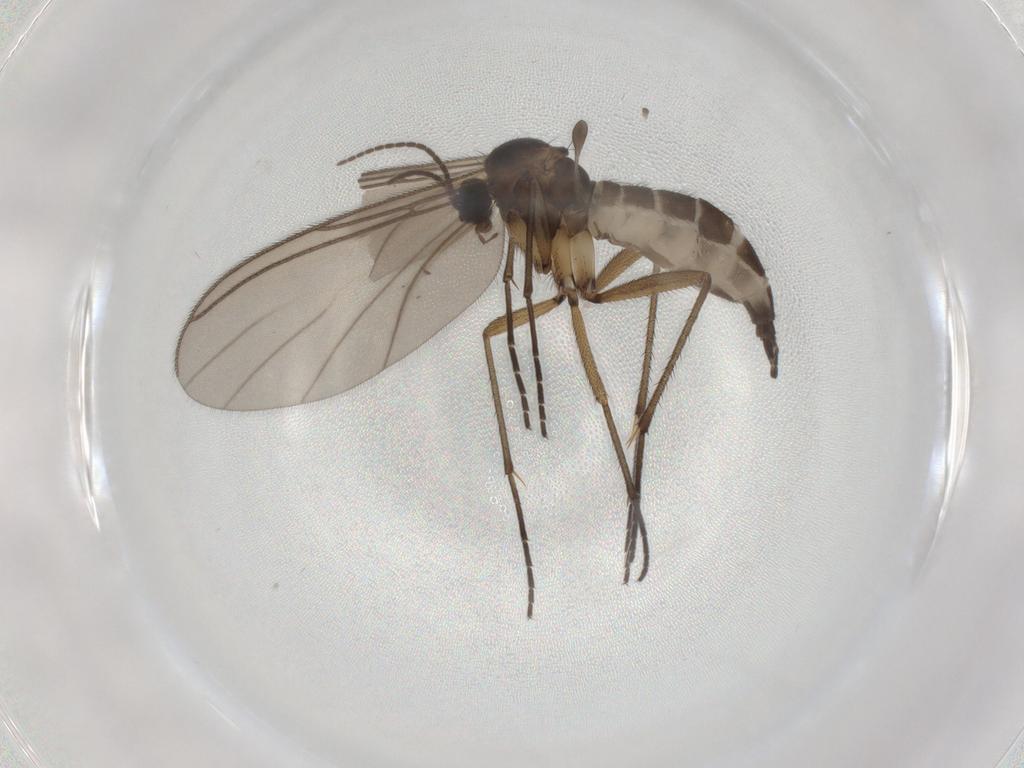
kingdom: Animalia
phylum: Arthropoda
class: Insecta
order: Diptera
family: Sciaridae
